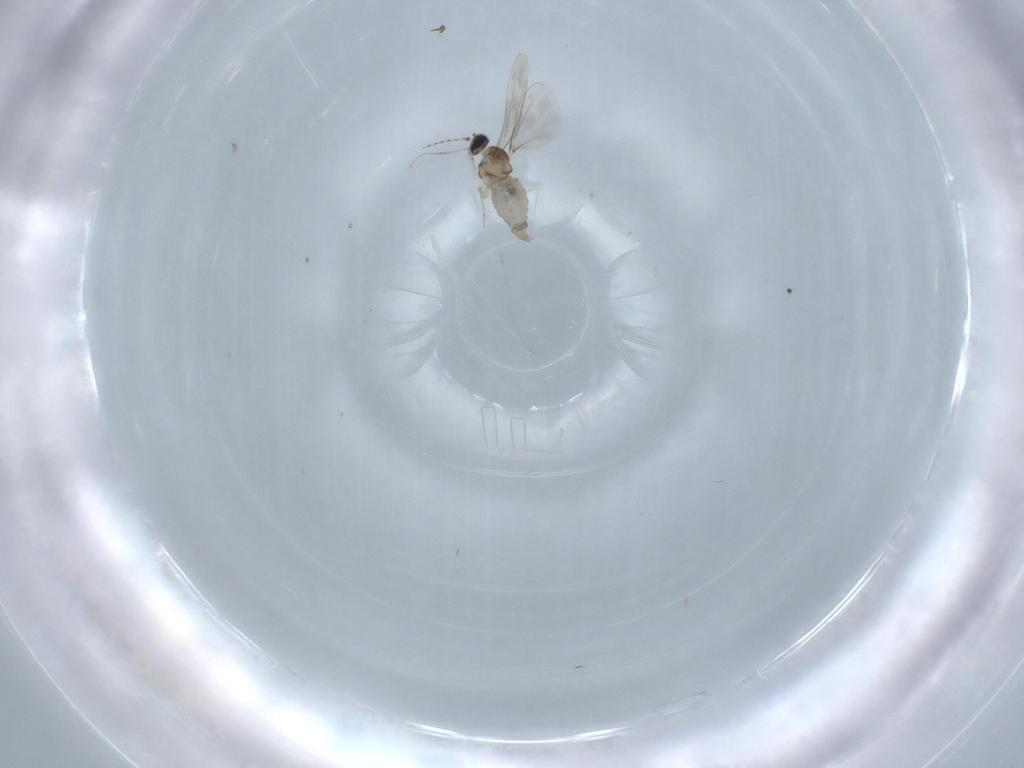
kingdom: Animalia
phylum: Arthropoda
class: Insecta
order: Diptera
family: Cecidomyiidae
